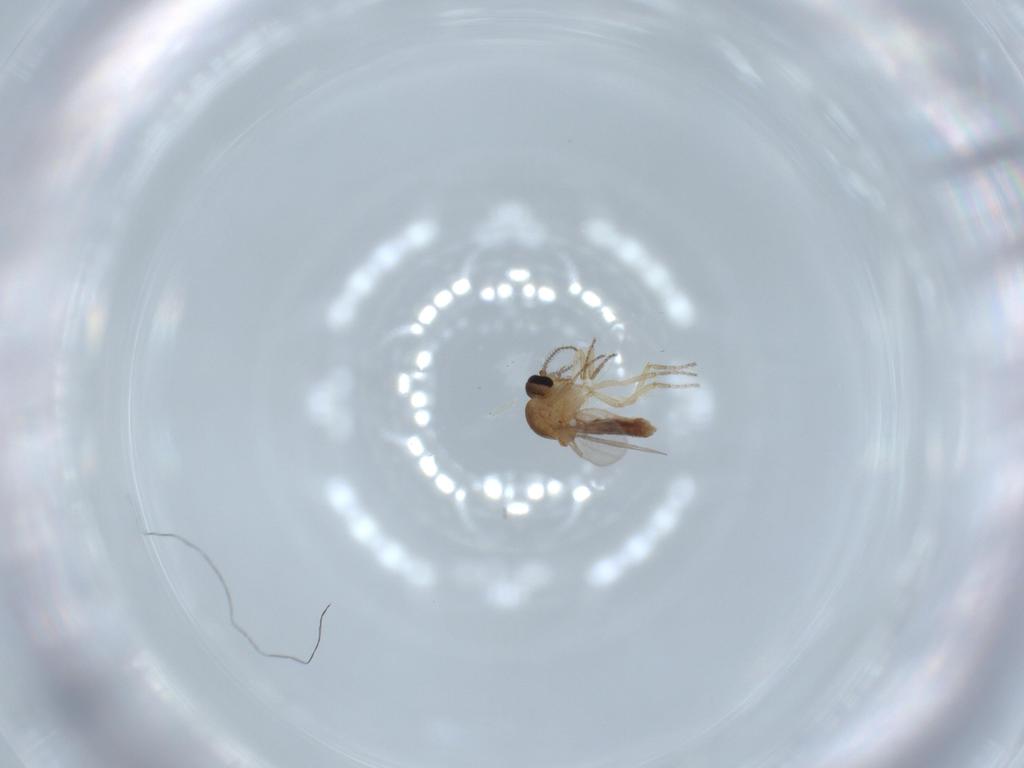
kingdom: Animalia
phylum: Arthropoda
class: Insecta
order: Diptera
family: Ceratopogonidae
